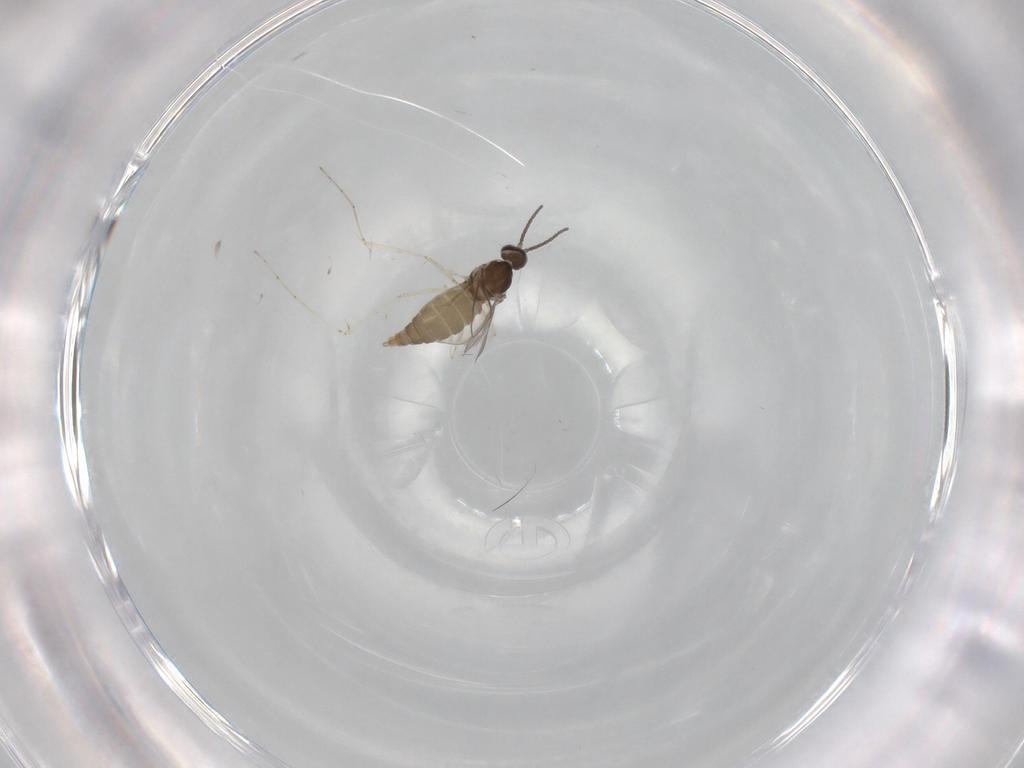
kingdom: Animalia
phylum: Arthropoda
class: Insecta
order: Diptera
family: Cecidomyiidae
